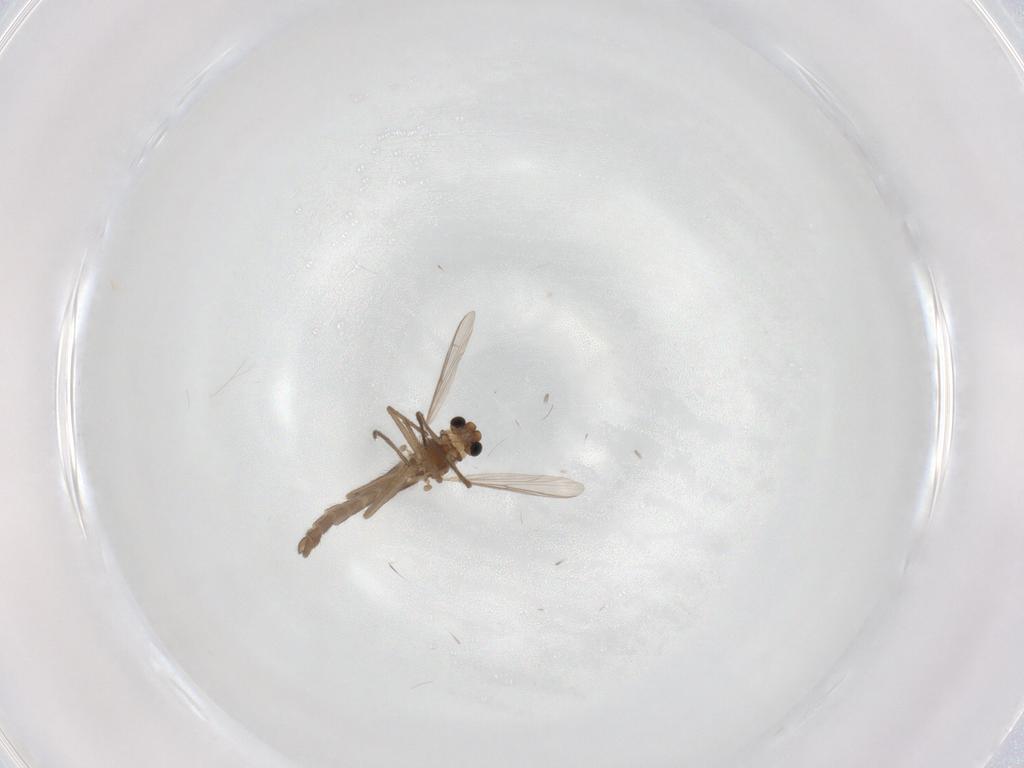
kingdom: Animalia
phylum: Arthropoda
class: Insecta
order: Diptera
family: Chironomidae
